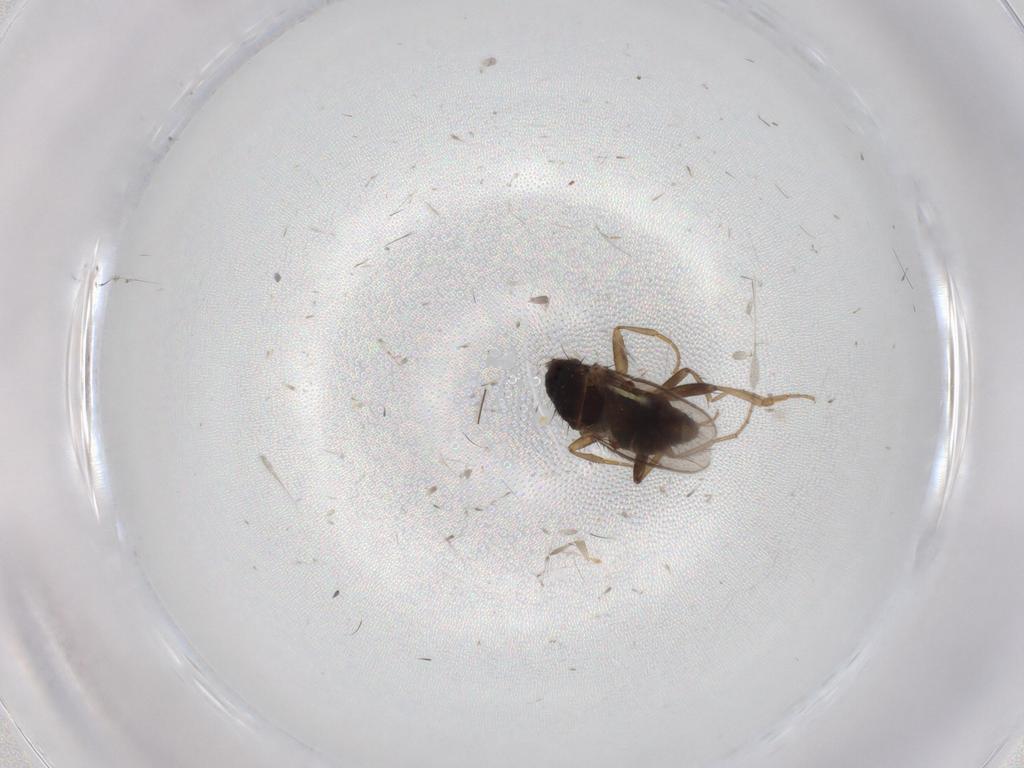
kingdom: Animalia
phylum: Arthropoda
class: Insecta
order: Diptera
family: Sphaeroceridae
